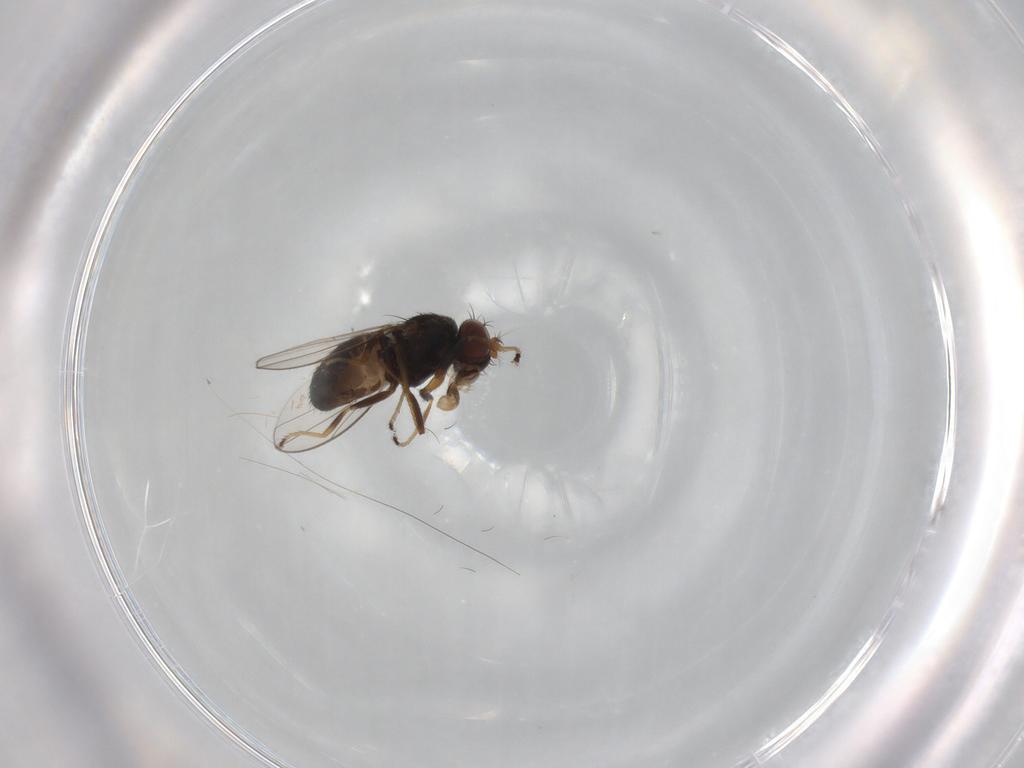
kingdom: Animalia
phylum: Arthropoda
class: Insecta
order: Diptera
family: Ephydridae
